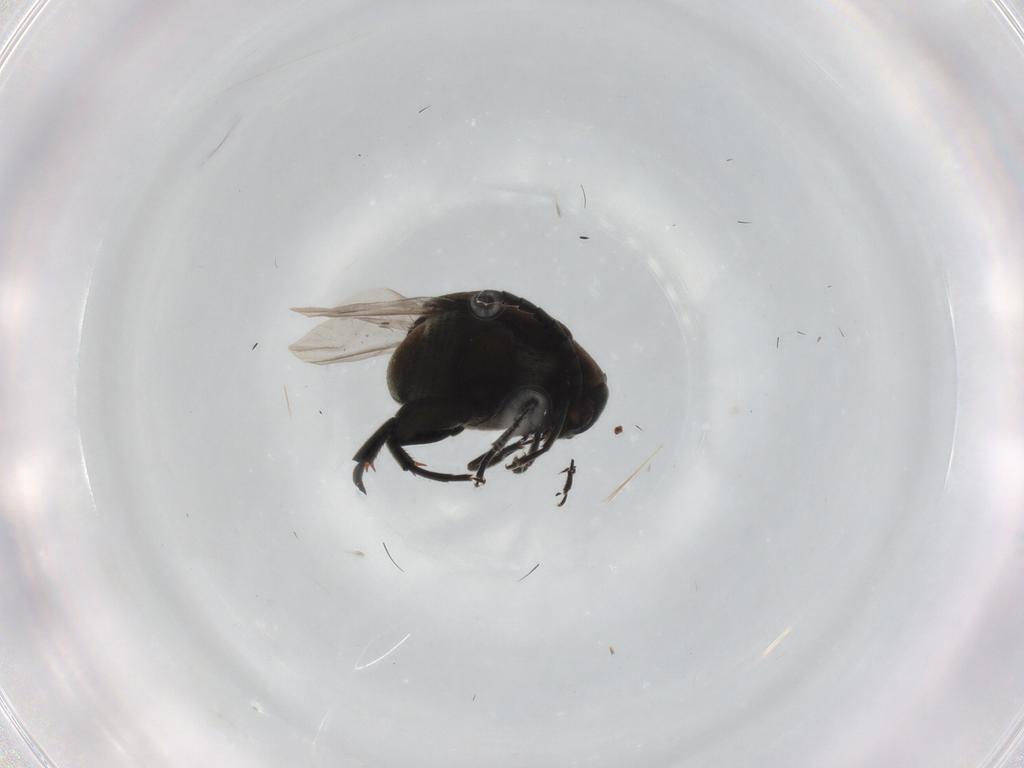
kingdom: Animalia
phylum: Arthropoda
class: Insecta
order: Coleoptera
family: Chrysomelidae
